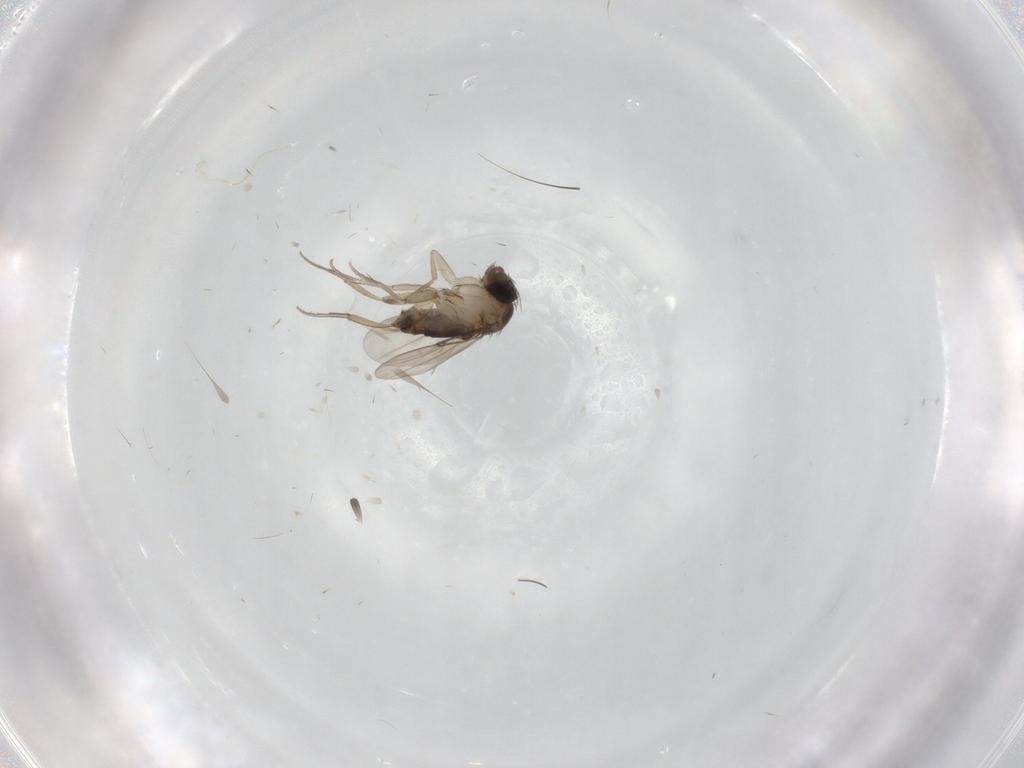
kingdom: Animalia
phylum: Arthropoda
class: Insecta
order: Diptera
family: Phoridae
